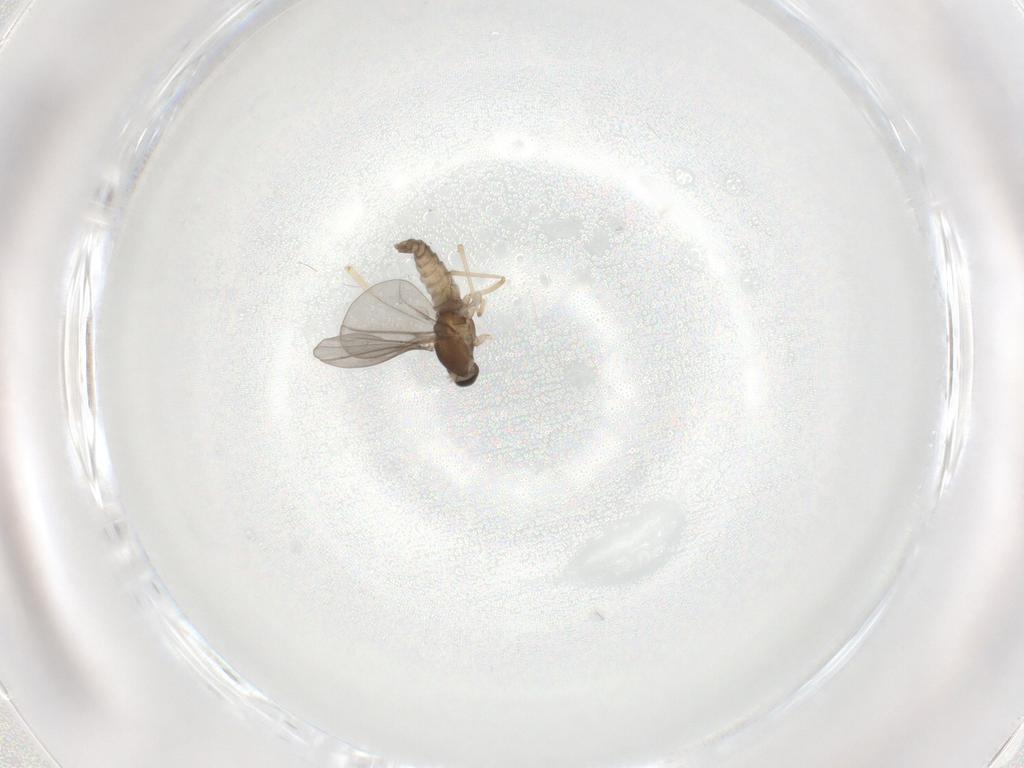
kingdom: Animalia
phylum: Arthropoda
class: Insecta
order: Diptera
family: Cecidomyiidae
